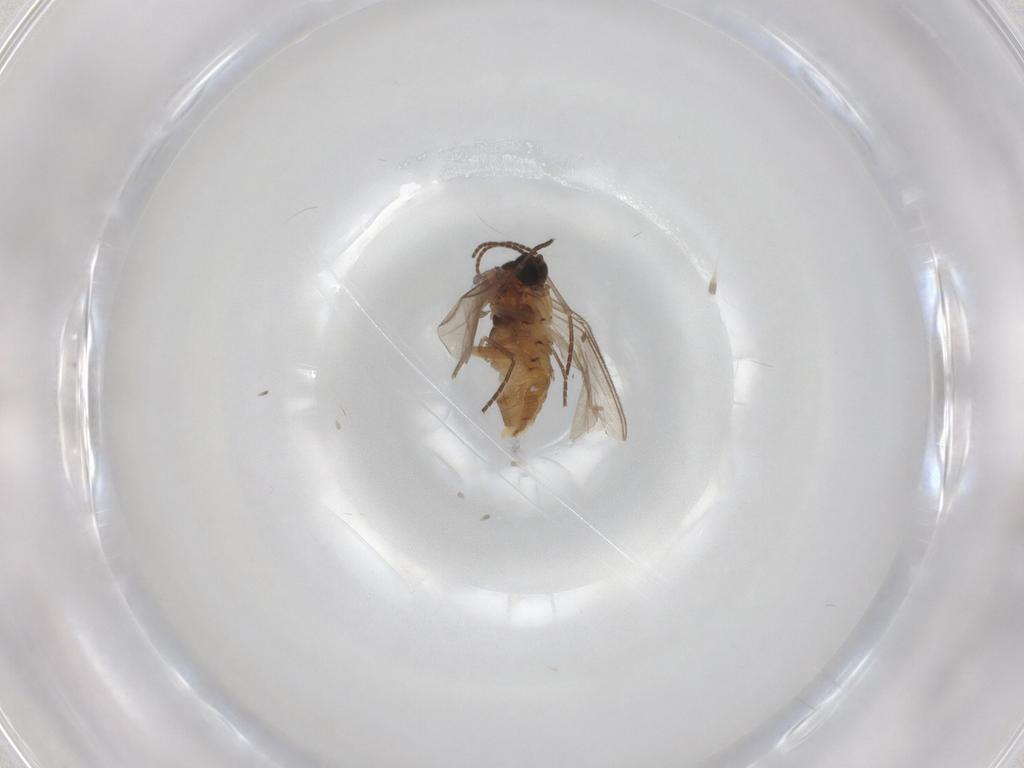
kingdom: Animalia
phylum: Arthropoda
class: Insecta
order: Diptera
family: Sciaridae
